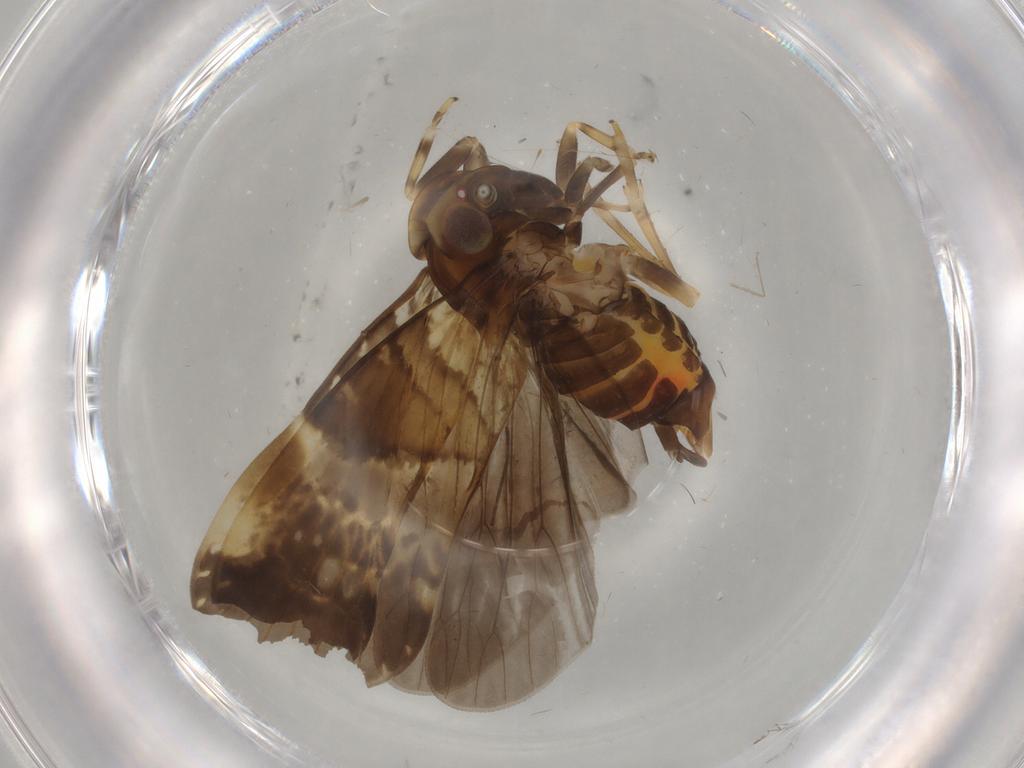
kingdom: Animalia
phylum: Arthropoda
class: Insecta
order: Hemiptera
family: Cixiidae
